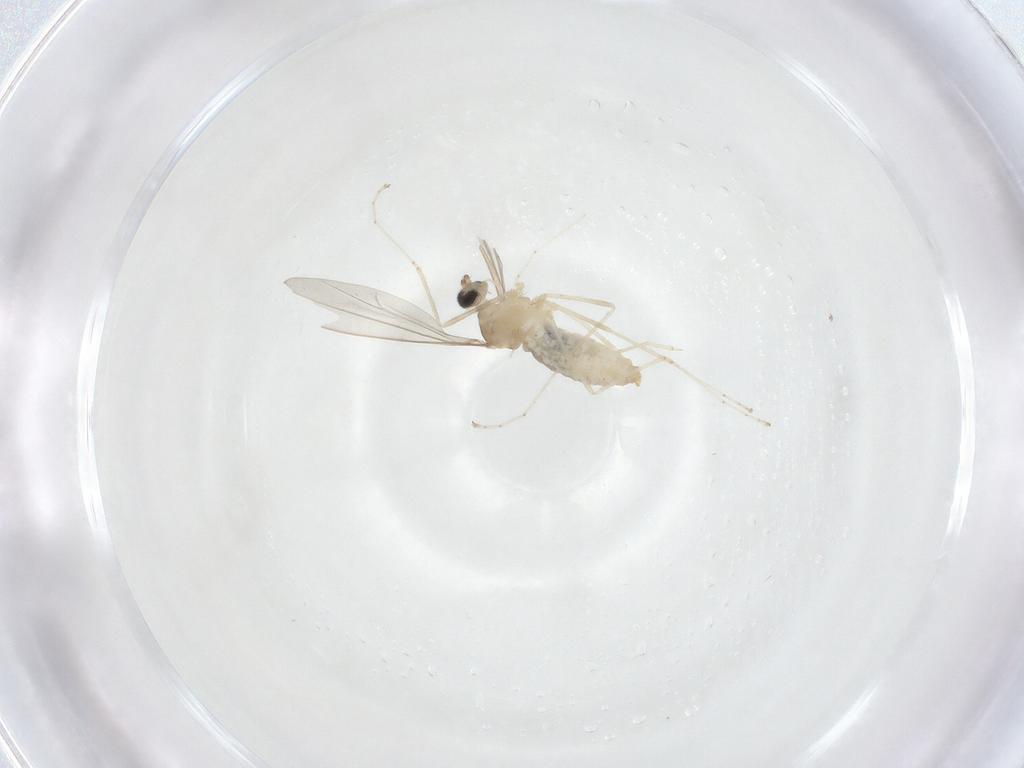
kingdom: Animalia
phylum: Arthropoda
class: Insecta
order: Diptera
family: Cecidomyiidae
